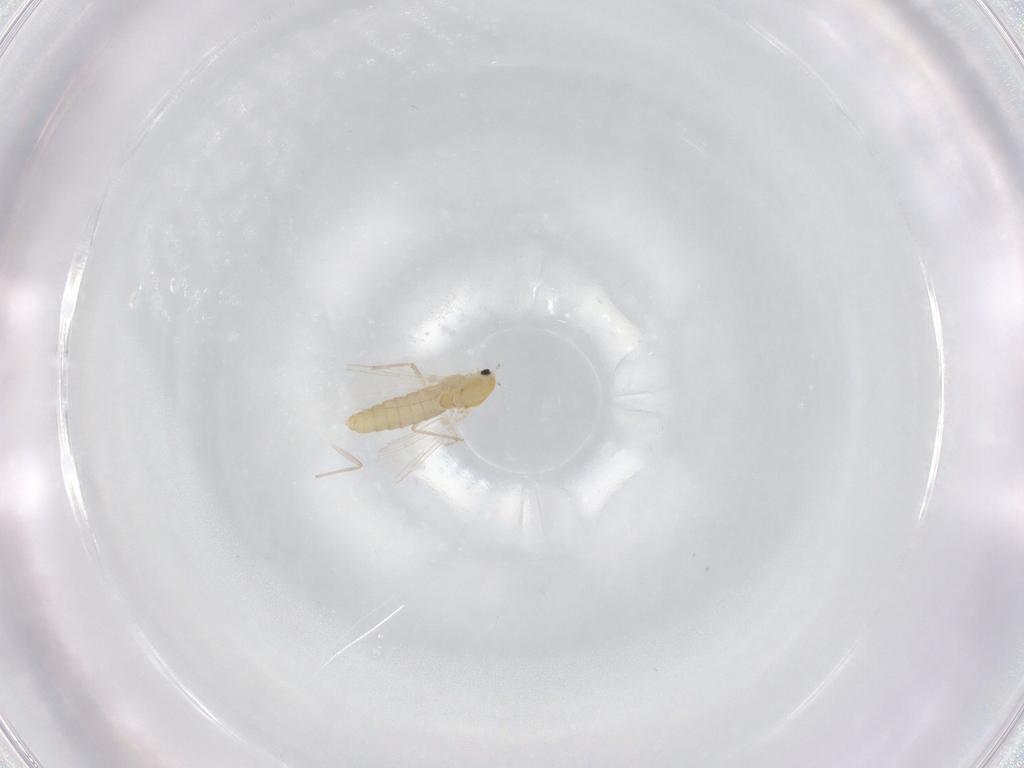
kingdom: Animalia
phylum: Arthropoda
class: Insecta
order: Diptera
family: Chironomidae
